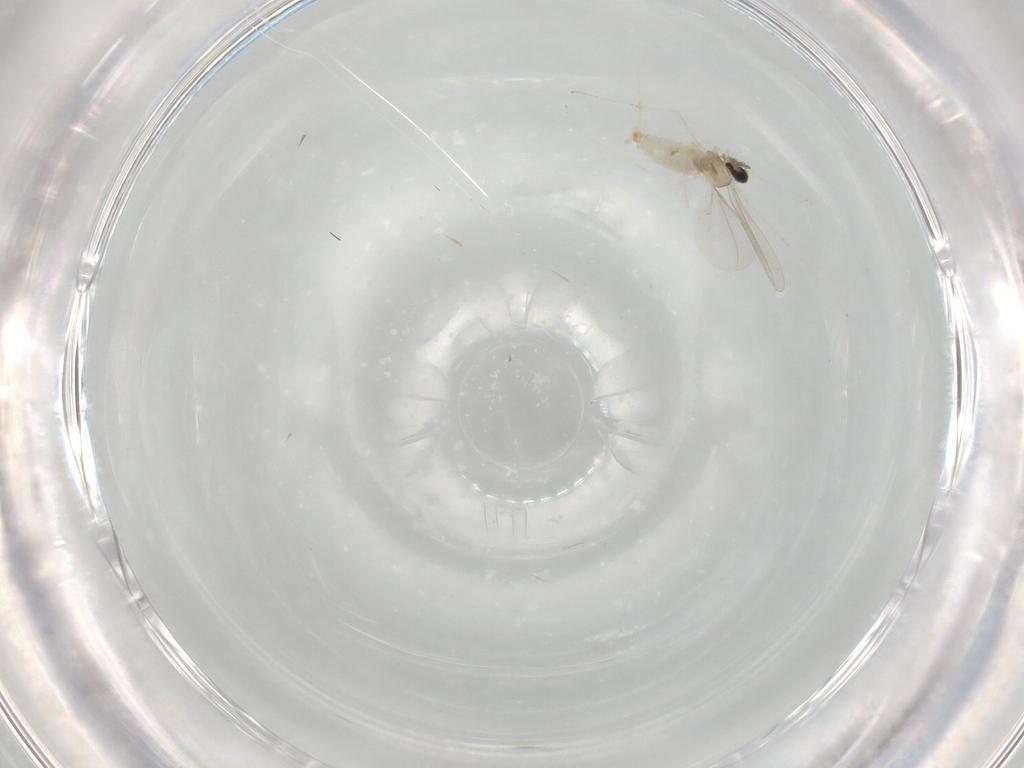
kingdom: Animalia
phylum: Arthropoda
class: Insecta
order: Diptera
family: Cecidomyiidae
